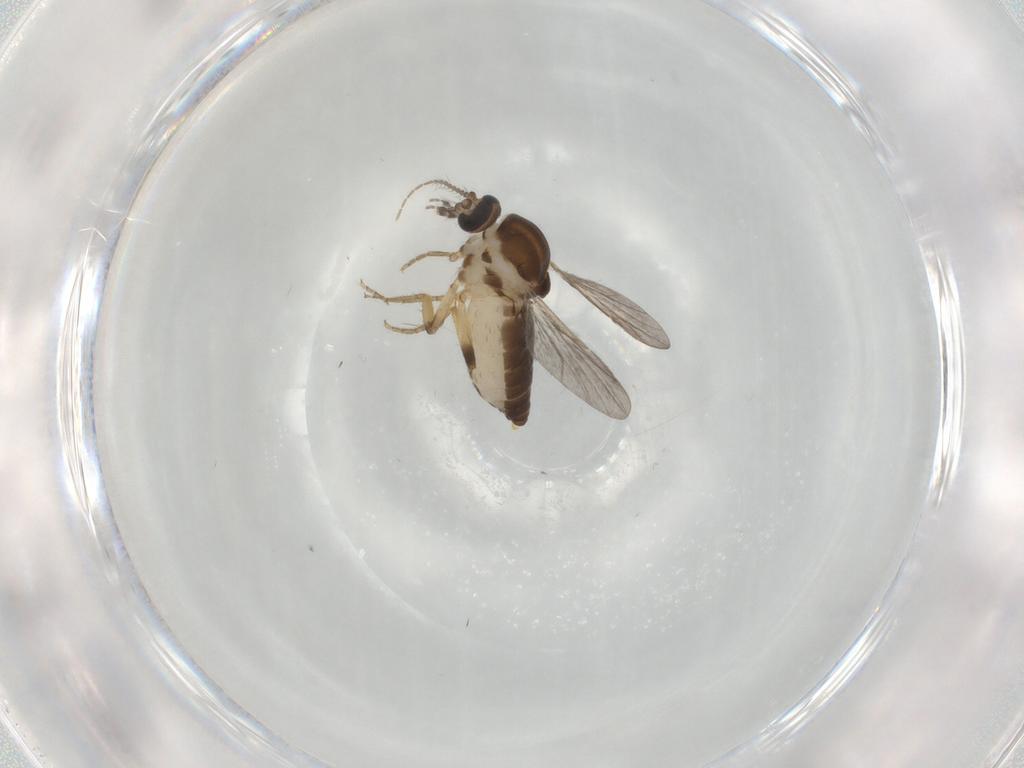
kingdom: Animalia
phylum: Arthropoda
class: Insecta
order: Diptera
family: Ceratopogonidae
